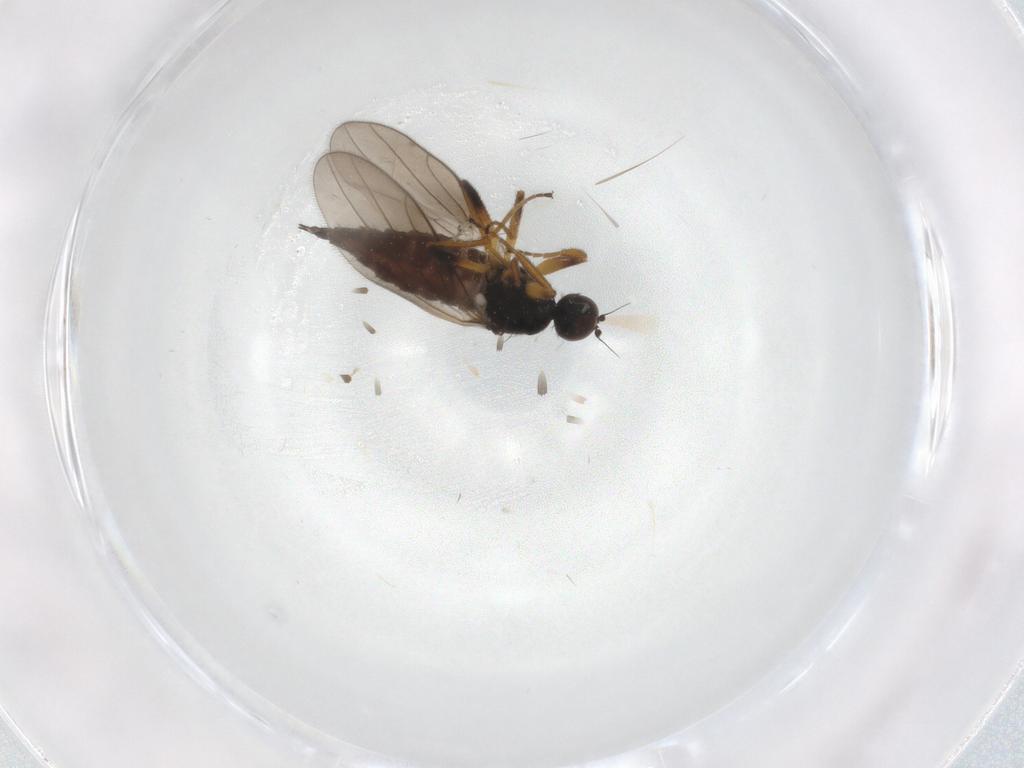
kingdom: Animalia
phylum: Arthropoda
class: Insecta
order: Diptera
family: Hybotidae
